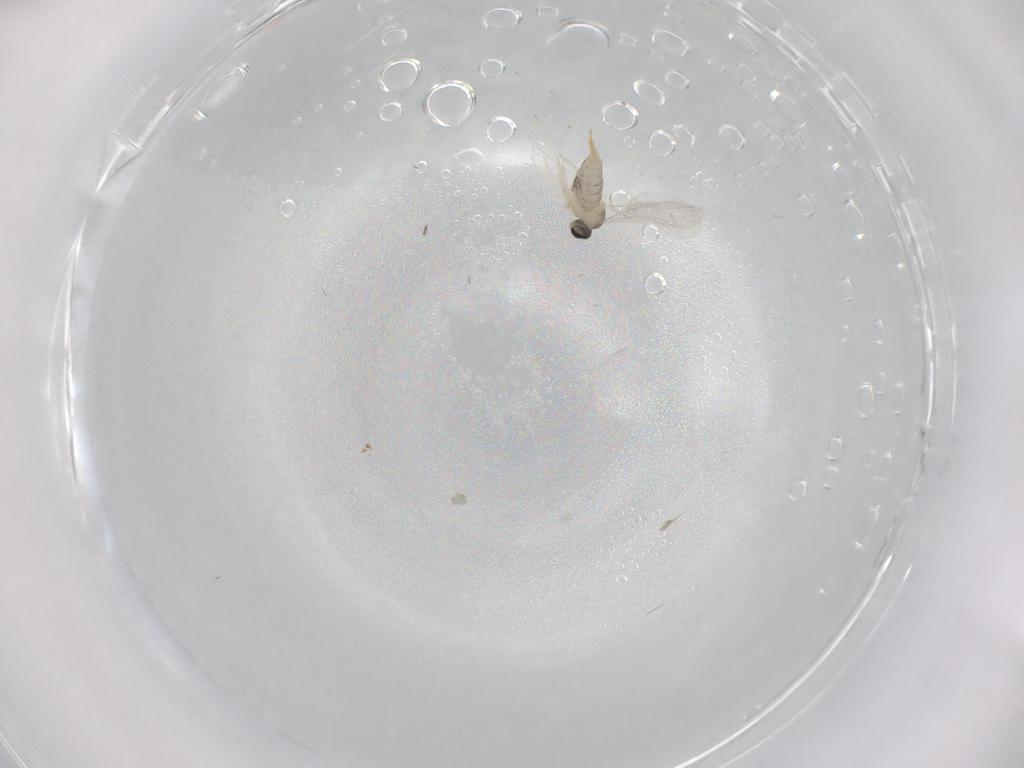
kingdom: Animalia
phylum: Arthropoda
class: Insecta
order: Diptera
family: Cecidomyiidae
